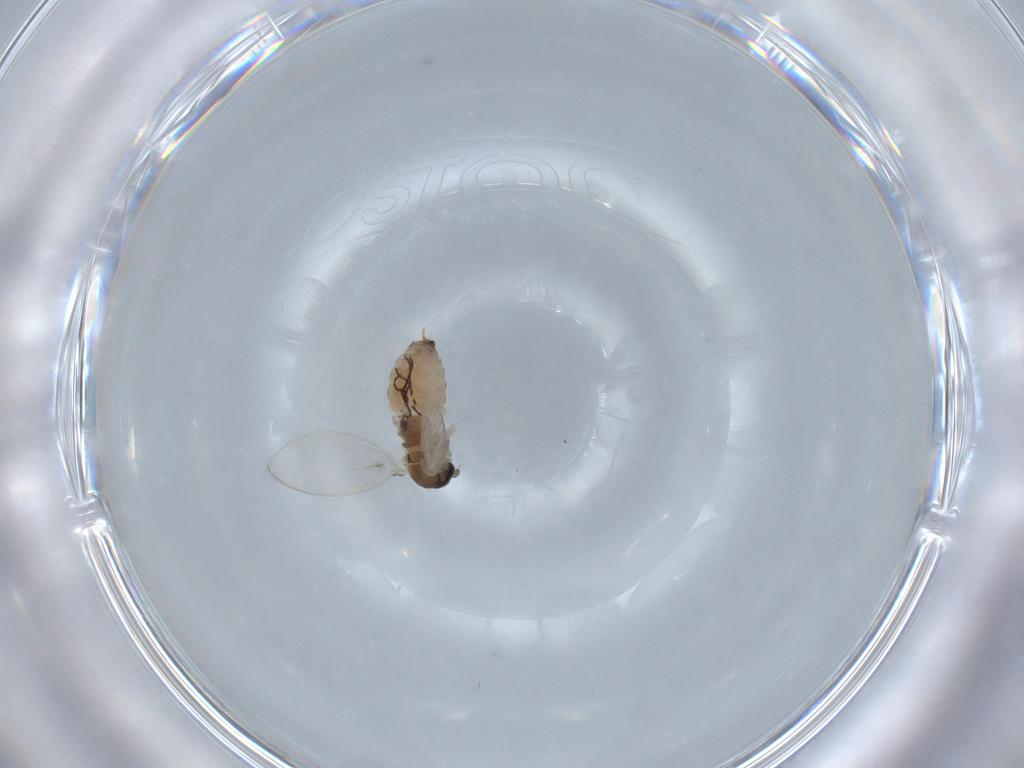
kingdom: Animalia
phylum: Arthropoda
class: Insecta
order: Diptera
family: Psychodidae
